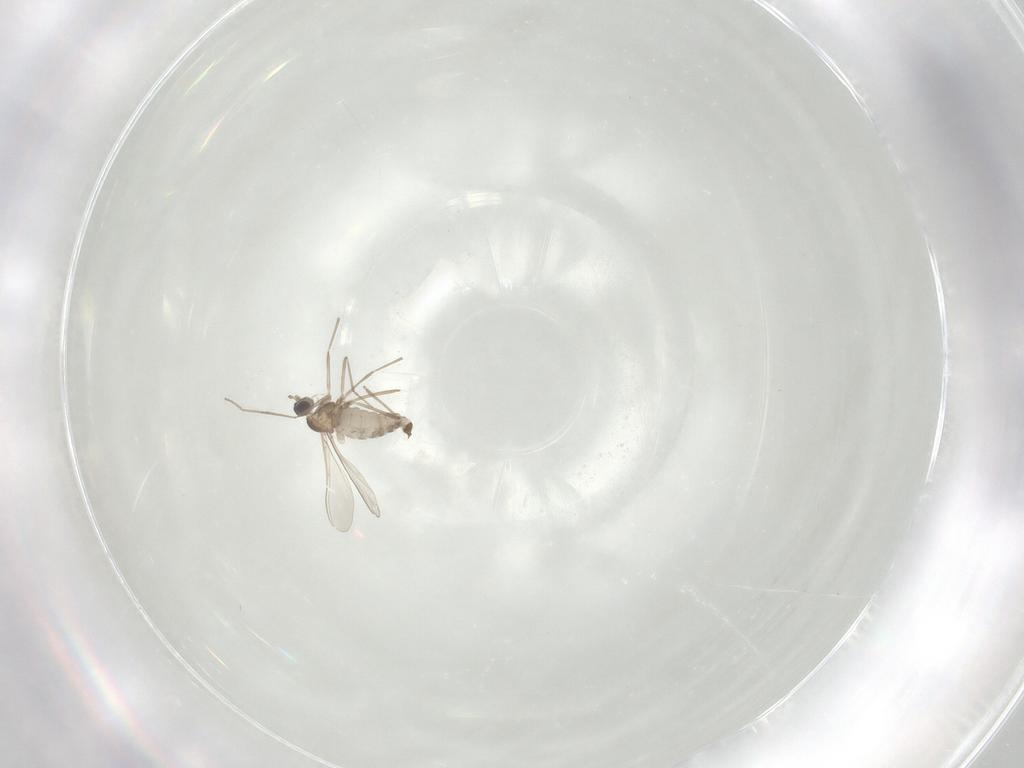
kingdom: Animalia
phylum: Arthropoda
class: Insecta
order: Diptera
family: Cecidomyiidae
